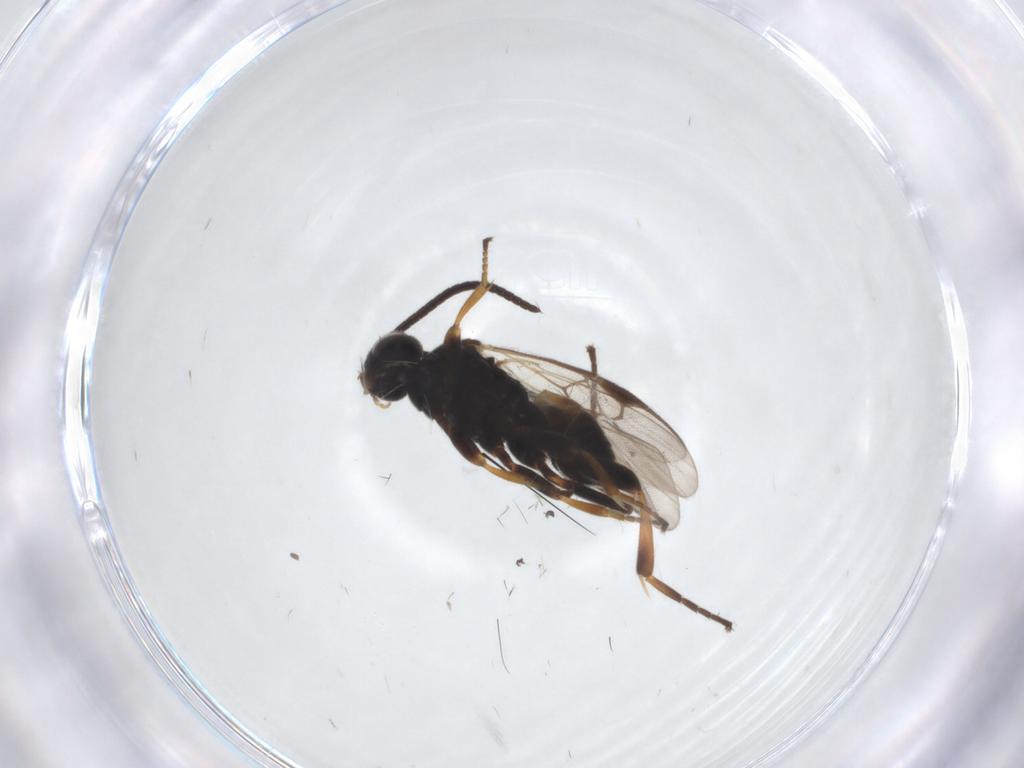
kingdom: Animalia
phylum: Arthropoda
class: Insecta
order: Hymenoptera
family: Braconidae
